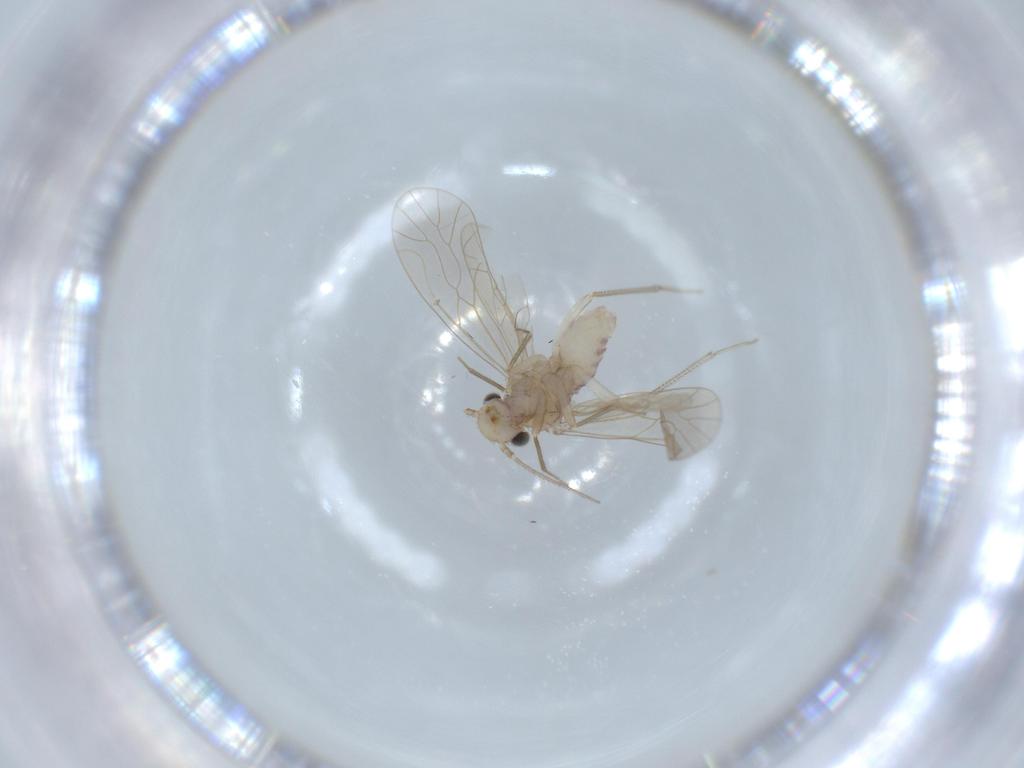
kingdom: Animalia
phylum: Arthropoda
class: Insecta
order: Psocodea
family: Caeciliusidae
